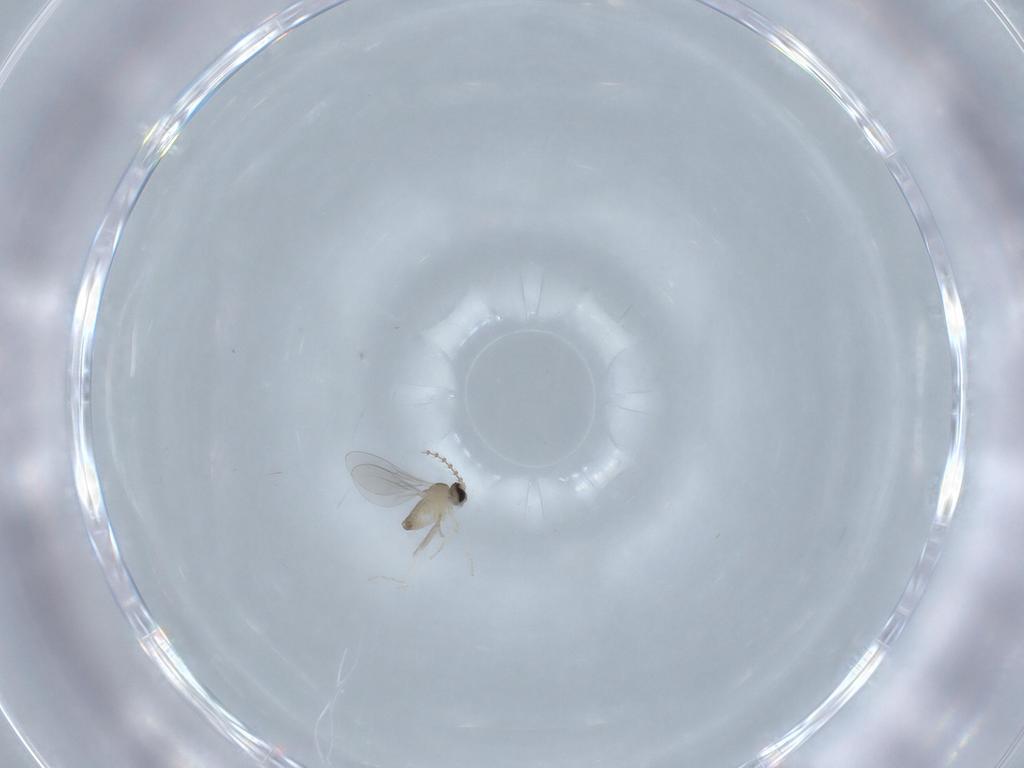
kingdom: Animalia
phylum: Arthropoda
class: Insecta
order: Diptera
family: Cecidomyiidae
